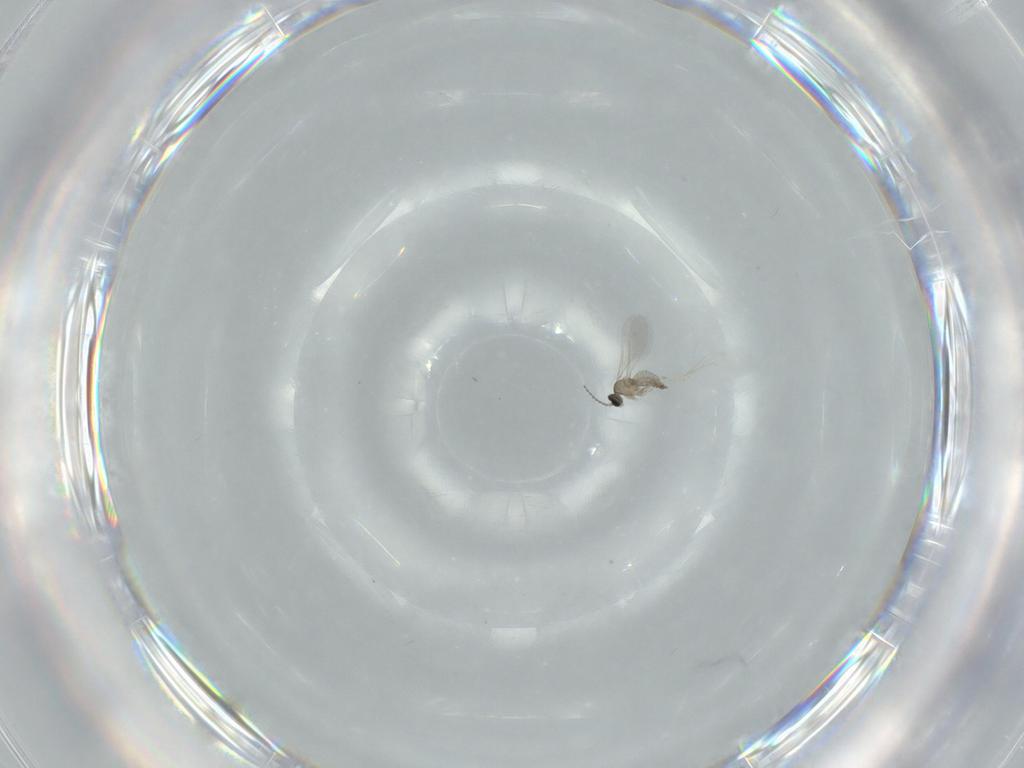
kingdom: Animalia
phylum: Arthropoda
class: Insecta
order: Diptera
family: Cecidomyiidae
